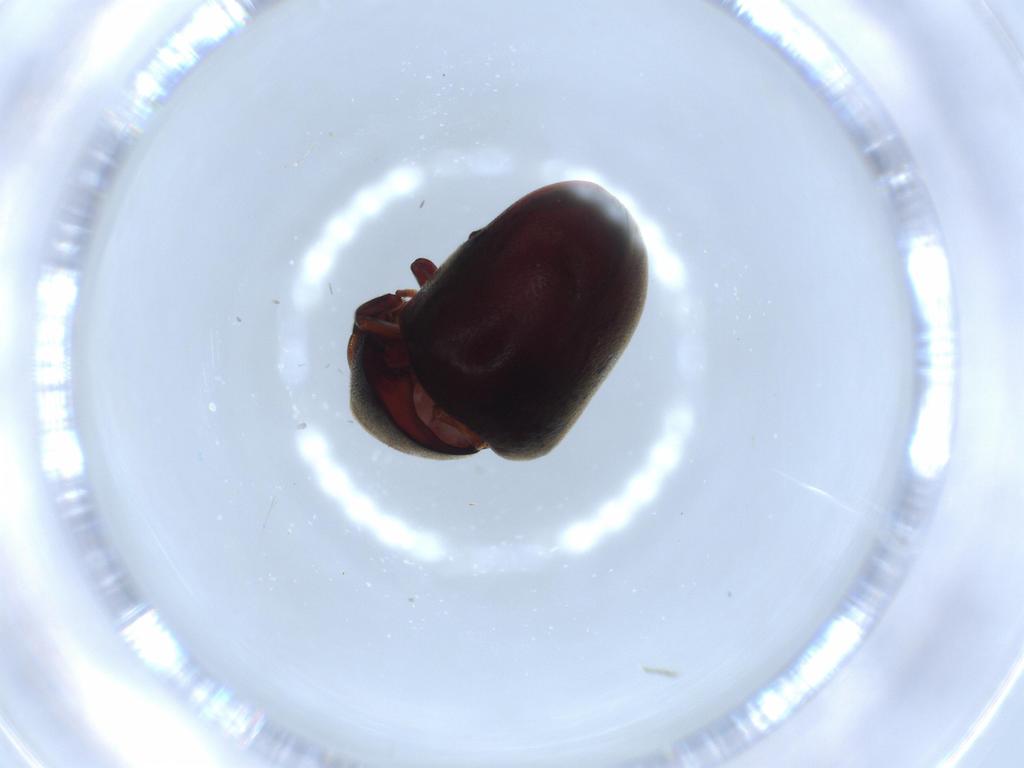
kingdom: Animalia
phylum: Arthropoda
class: Insecta
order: Coleoptera
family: Ptinidae
